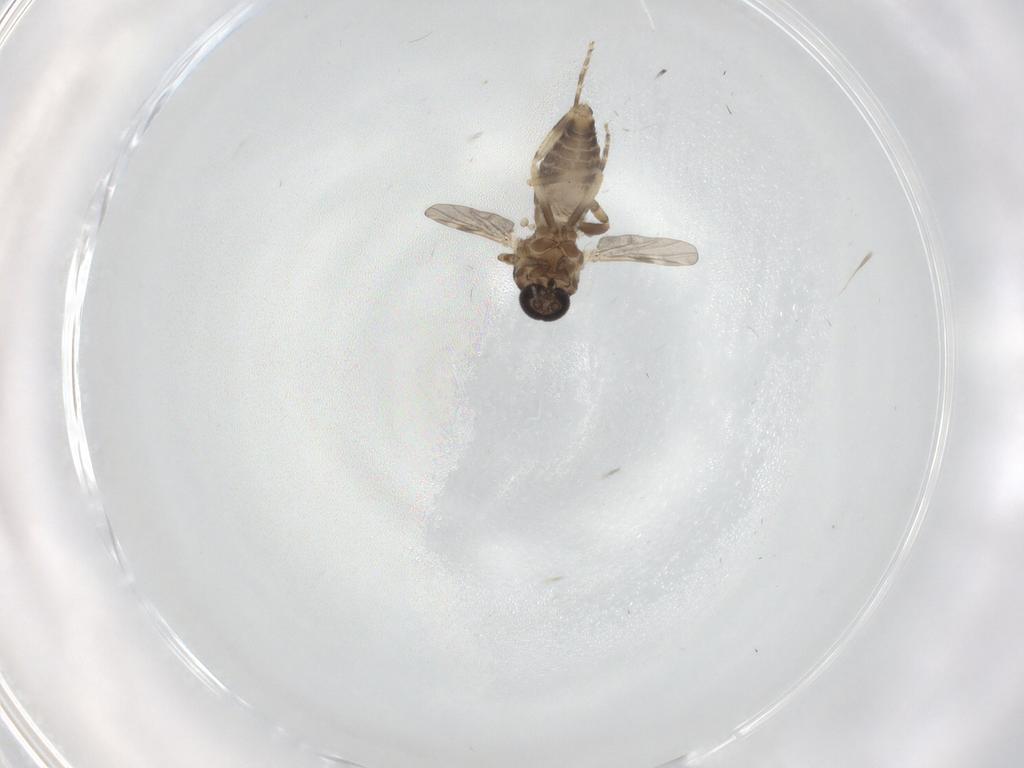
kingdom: Animalia
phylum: Arthropoda
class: Insecta
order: Diptera
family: Ceratopogonidae
